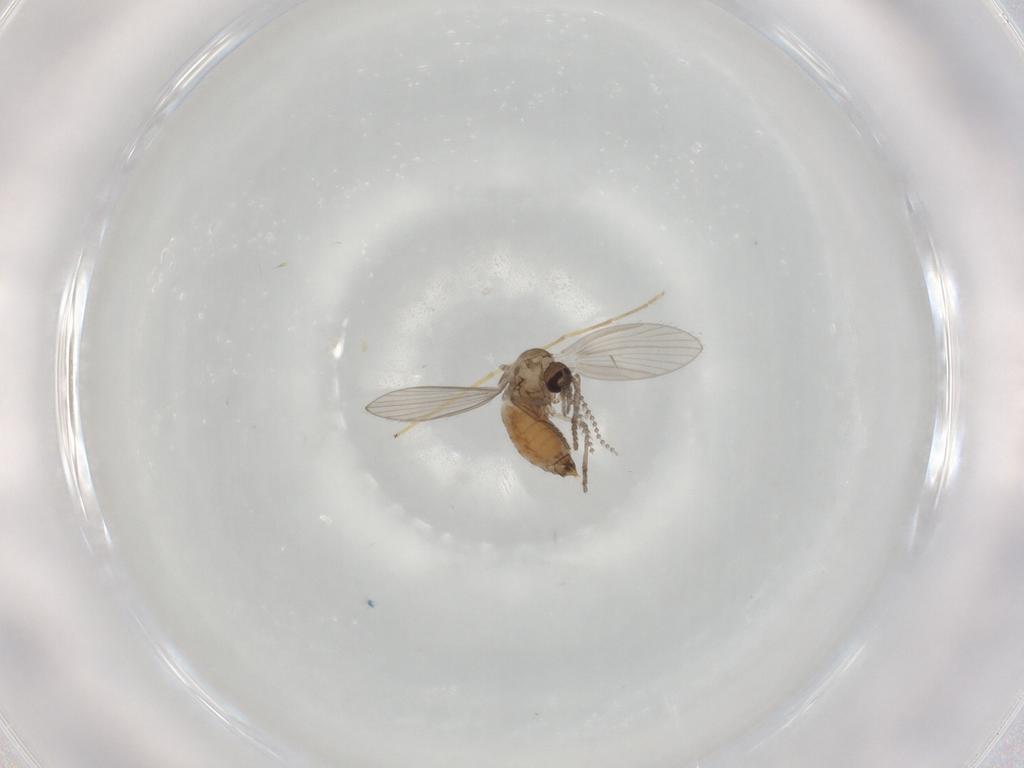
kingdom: Animalia
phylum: Arthropoda
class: Insecta
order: Diptera
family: Psychodidae
